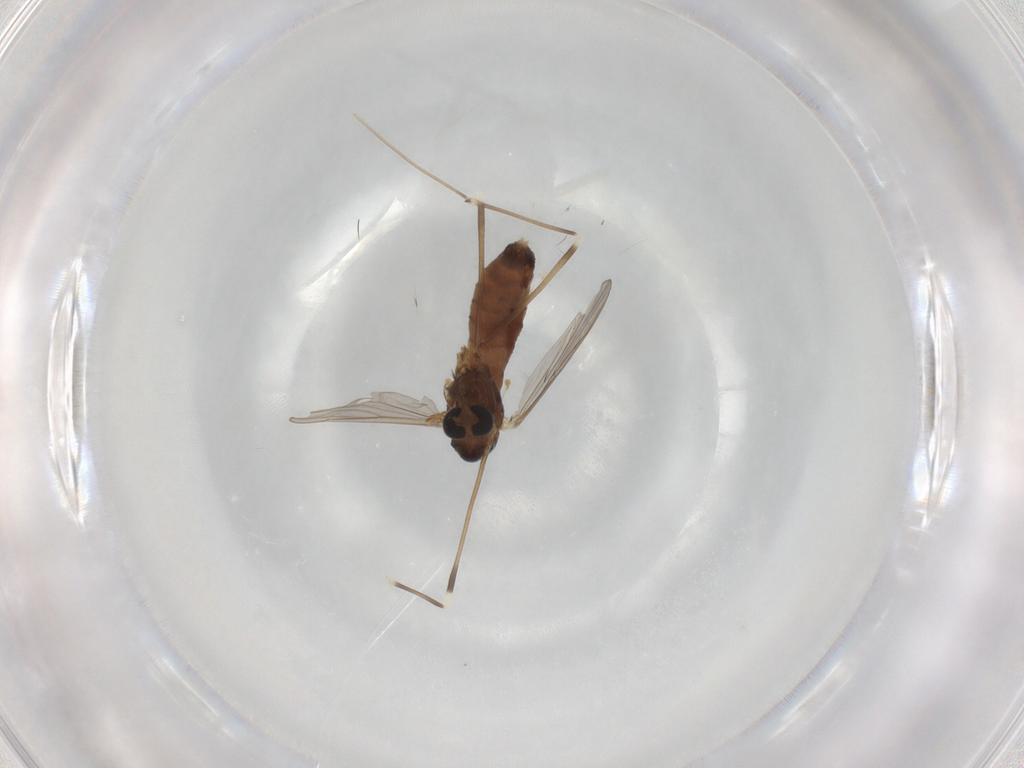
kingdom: Animalia
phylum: Arthropoda
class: Insecta
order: Diptera
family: Chironomidae
